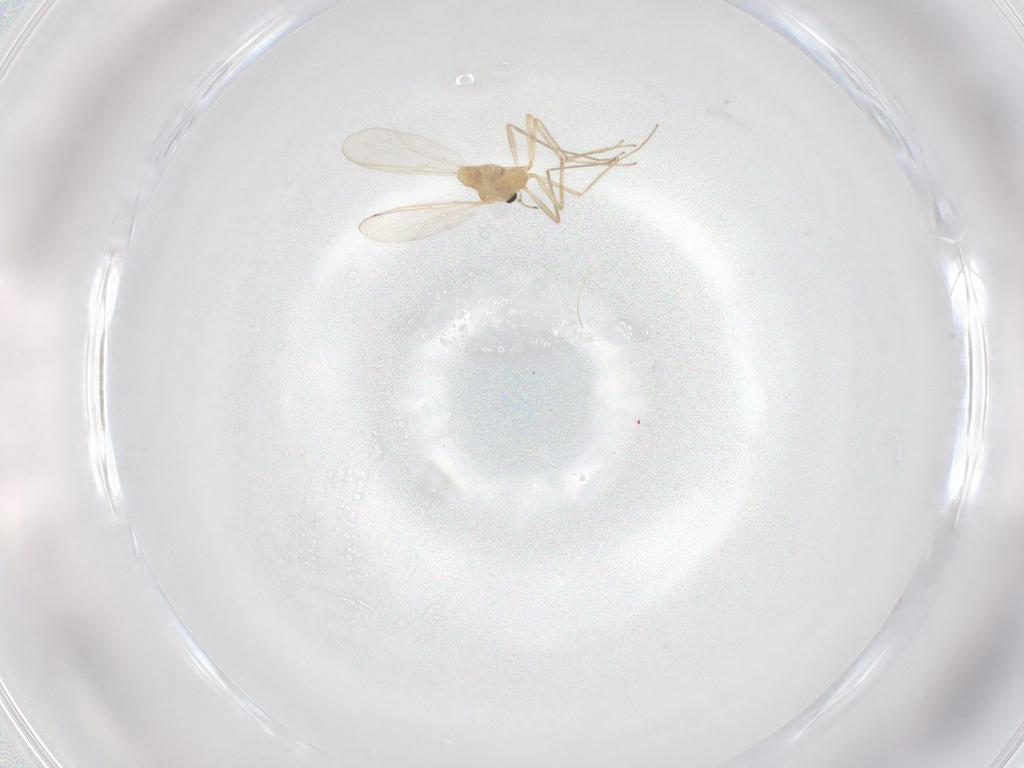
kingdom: Animalia
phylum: Arthropoda
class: Insecta
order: Diptera
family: Chironomidae
